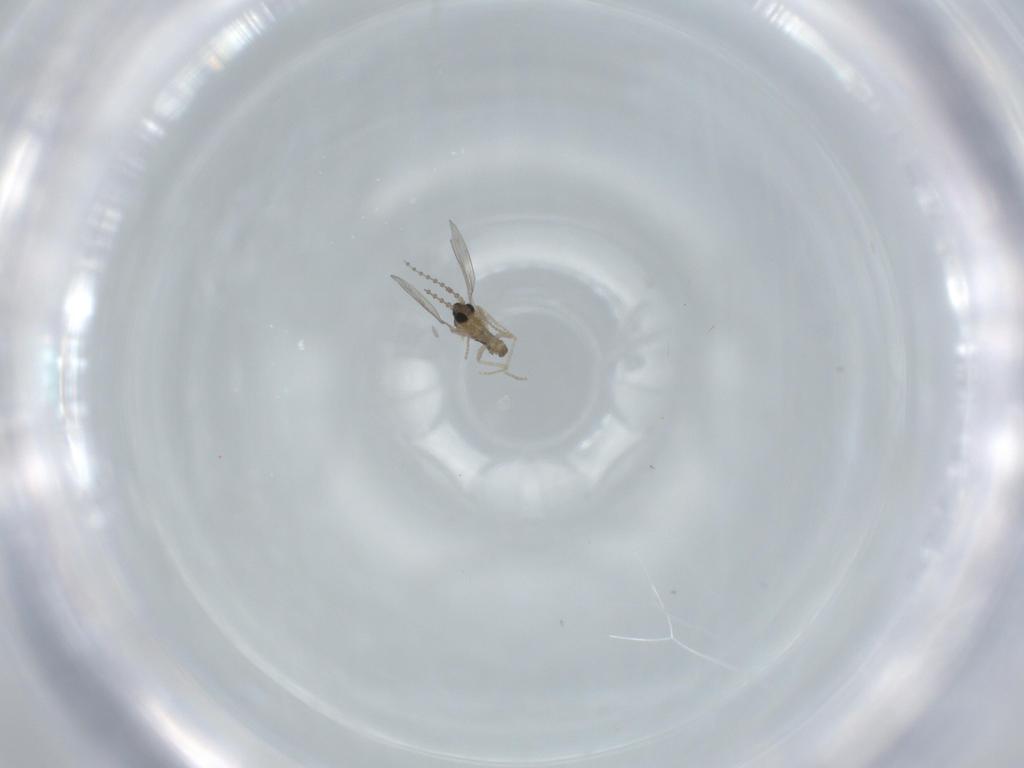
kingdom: Animalia
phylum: Arthropoda
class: Insecta
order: Diptera
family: Cecidomyiidae
